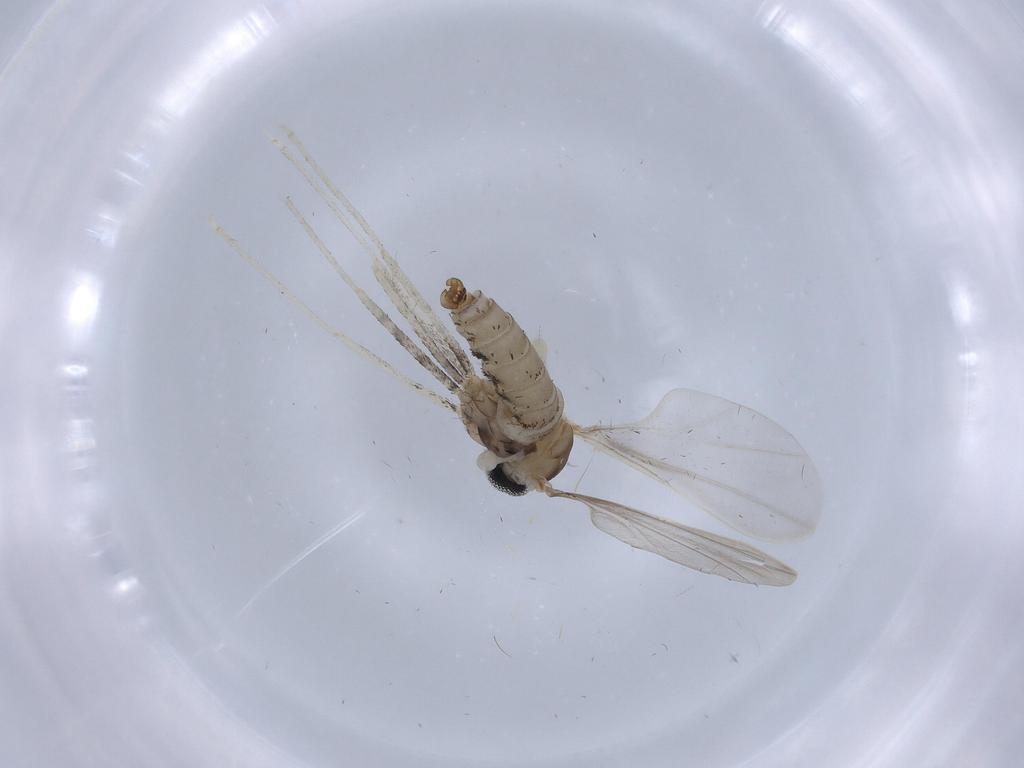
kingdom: Animalia
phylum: Arthropoda
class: Insecta
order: Diptera
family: Cecidomyiidae
